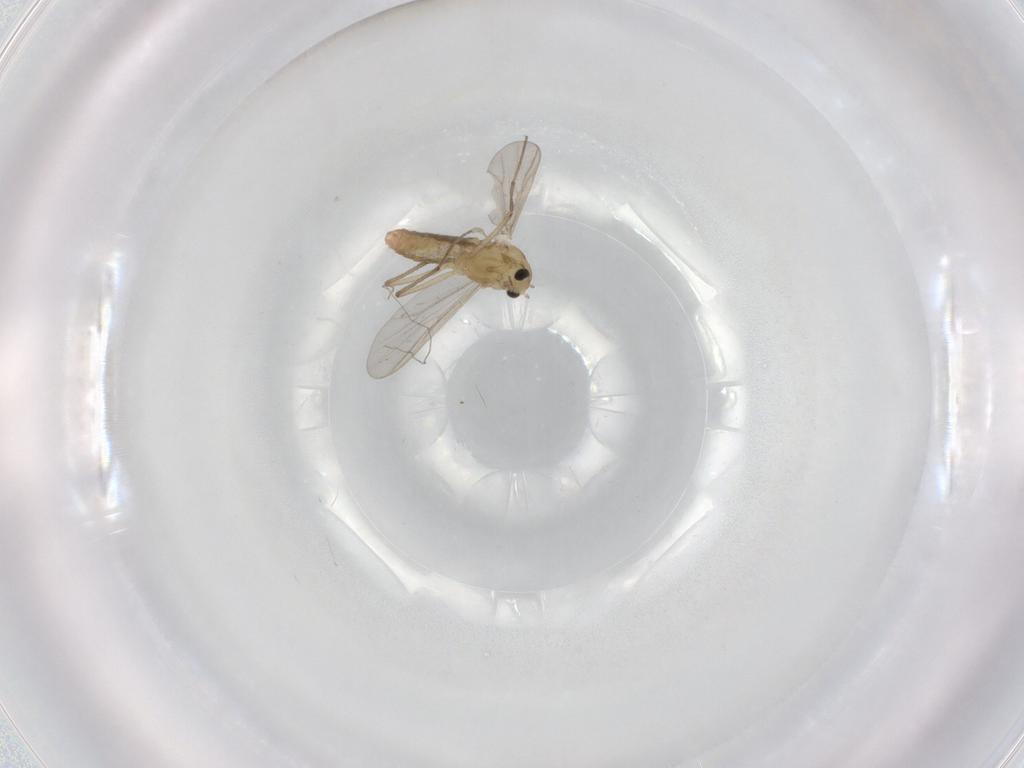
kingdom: Animalia
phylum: Arthropoda
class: Insecta
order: Diptera
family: Chironomidae
